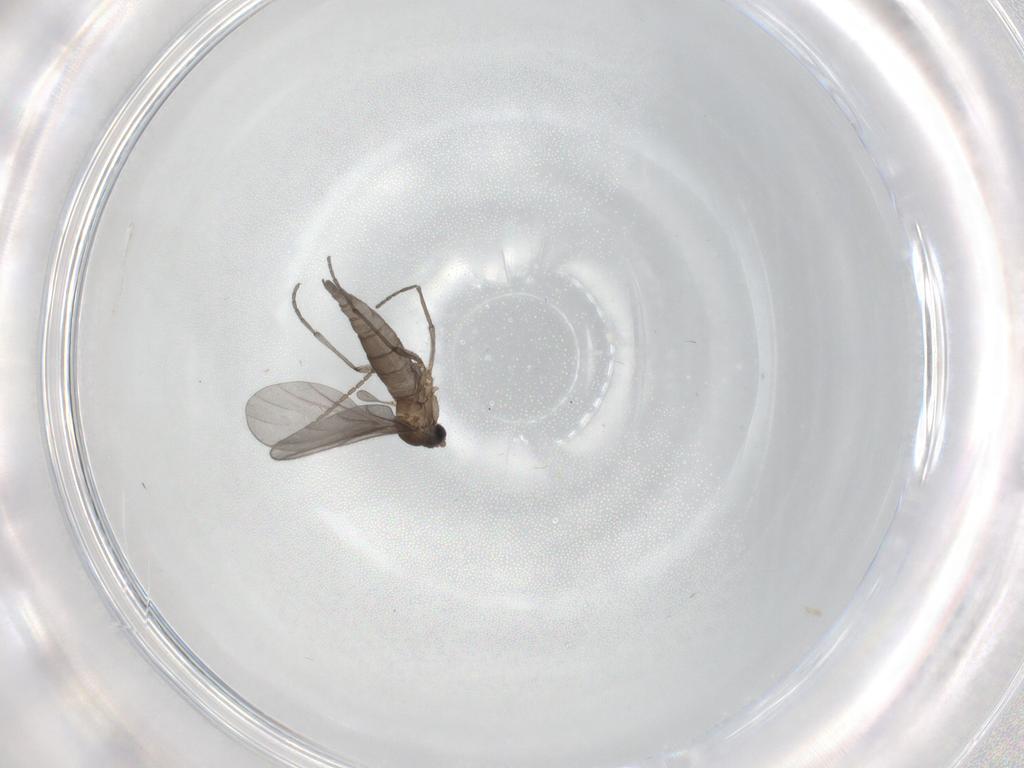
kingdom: Animalia
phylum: Arthropoda
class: Insecta
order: Diptera
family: Sciaridae
